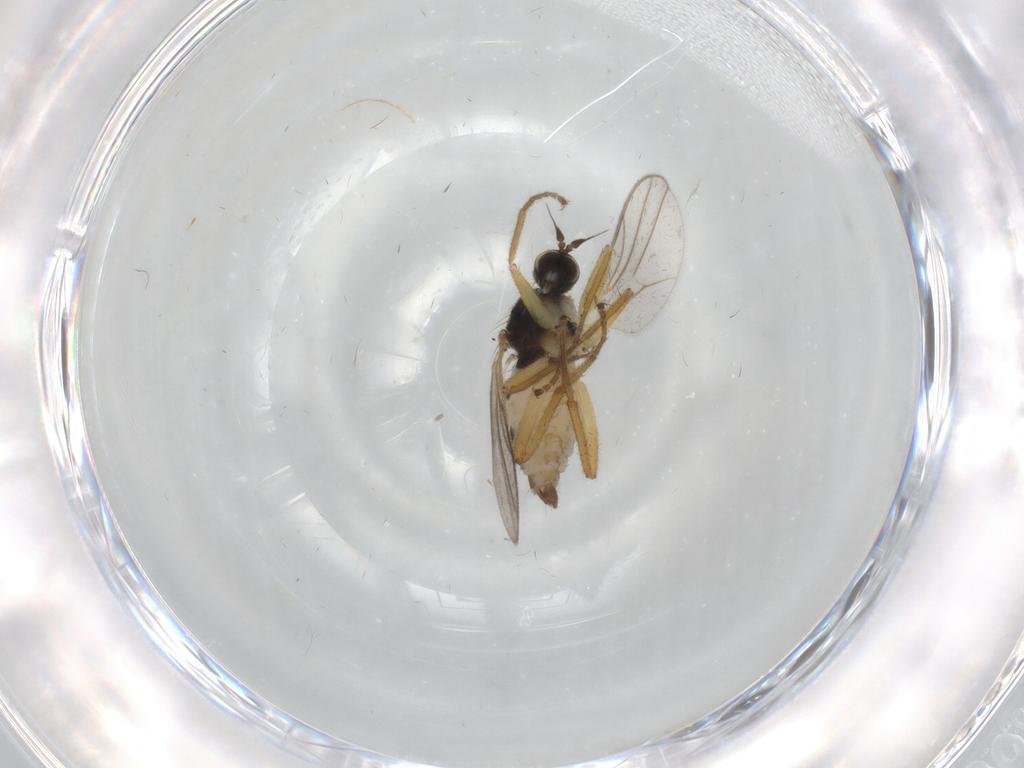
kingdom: Animalia
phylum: Arthropoda
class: Insecta
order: Diptera
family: Hybotidae
